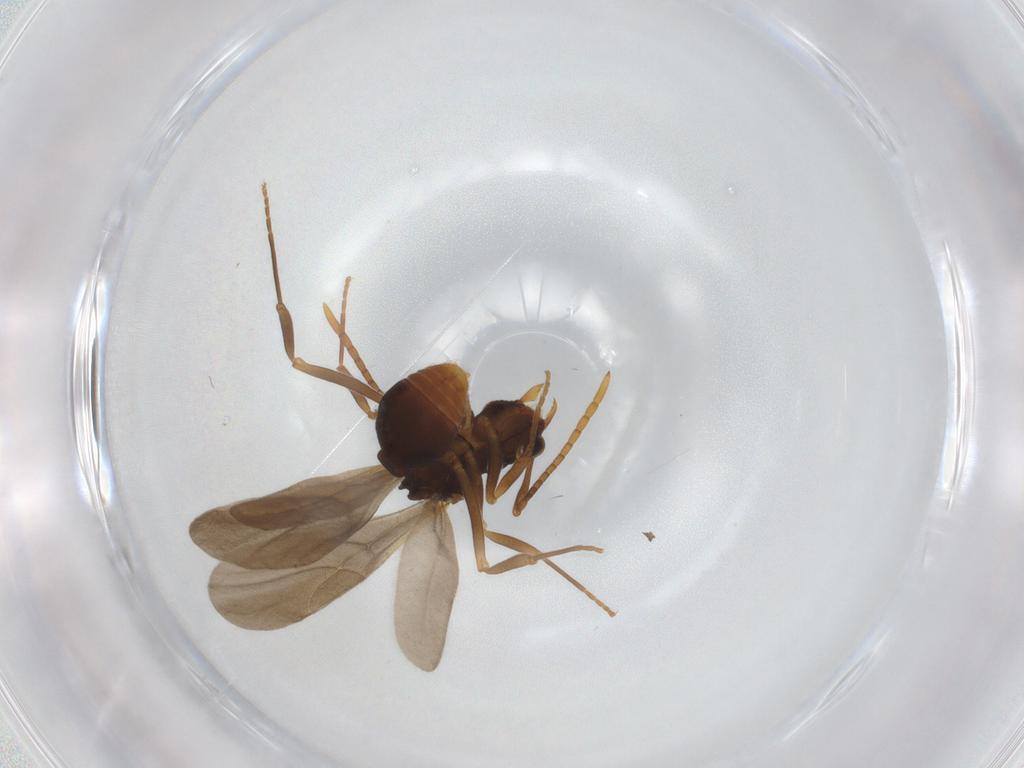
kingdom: Animalia
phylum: Arthropoda
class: Insecta
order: Hymenoptera
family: Formicidae
